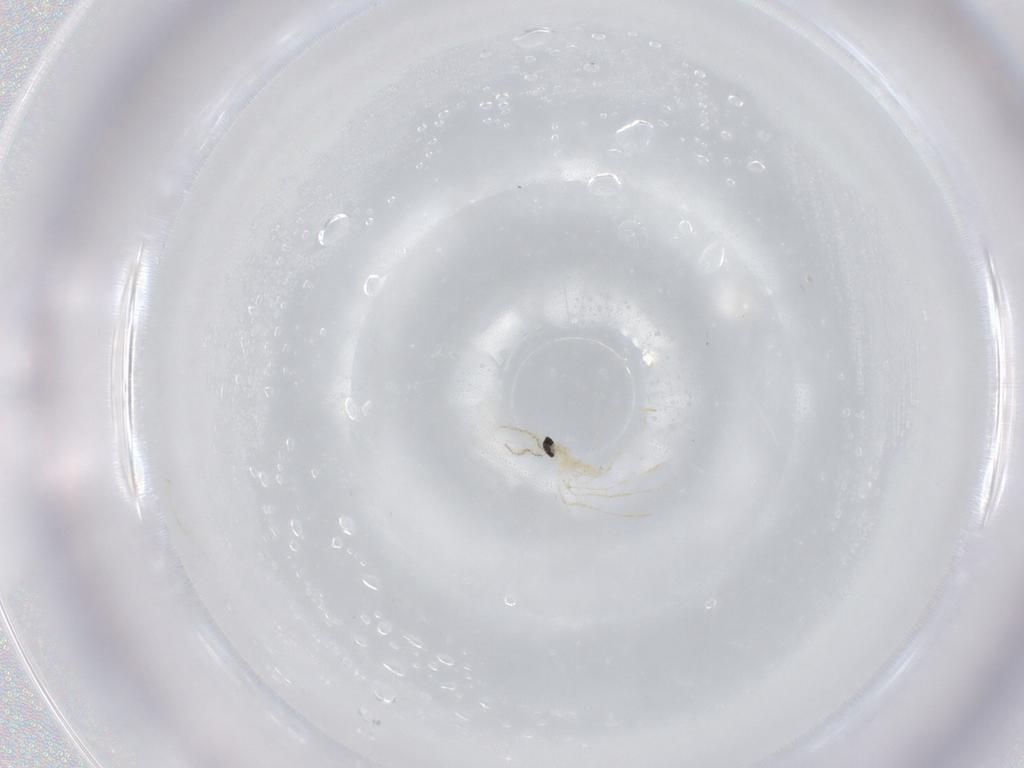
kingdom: Animalia
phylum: Arthropoda
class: Insecta
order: Diptera
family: Cecidomyiidae
